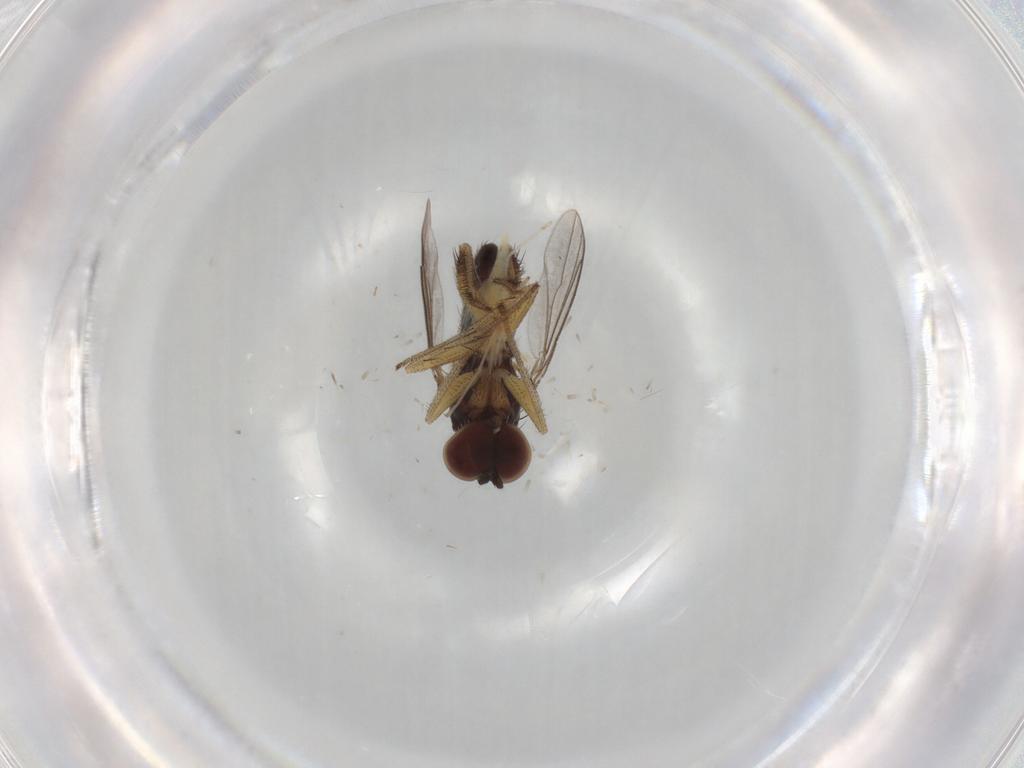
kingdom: Animalia
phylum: Arthropoda
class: Insecta
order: Diptera
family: Cecidomyiidae
